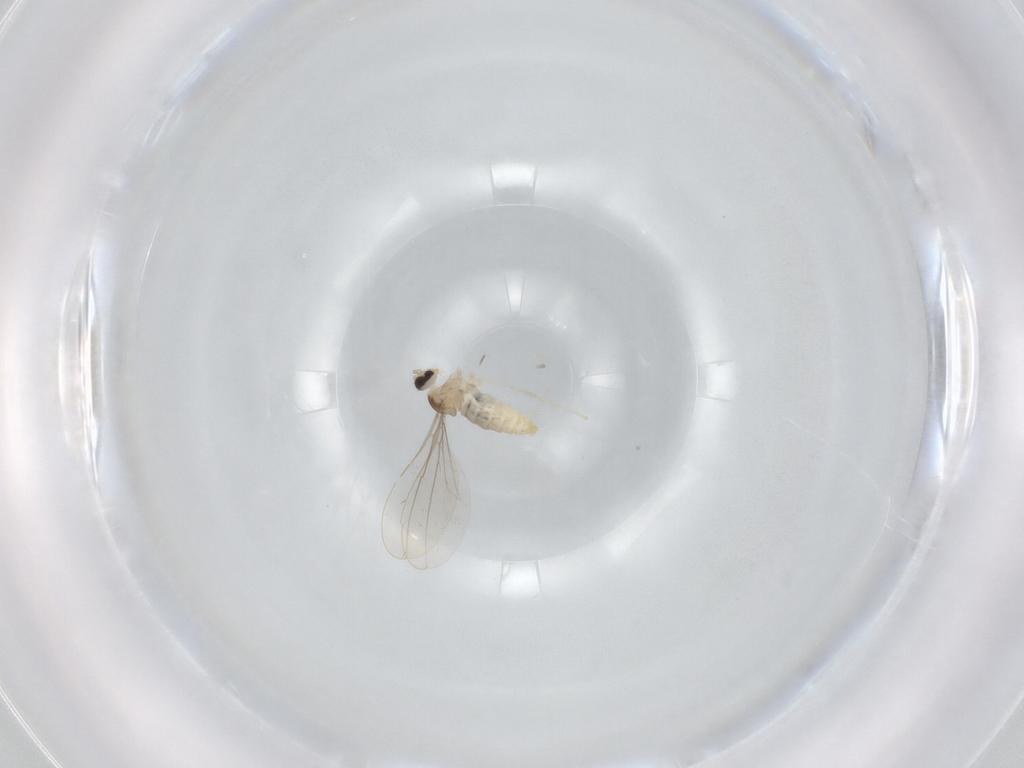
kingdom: Animalia
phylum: Arthropoda
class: Insecta
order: Diptera
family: Cecidomyiidae
